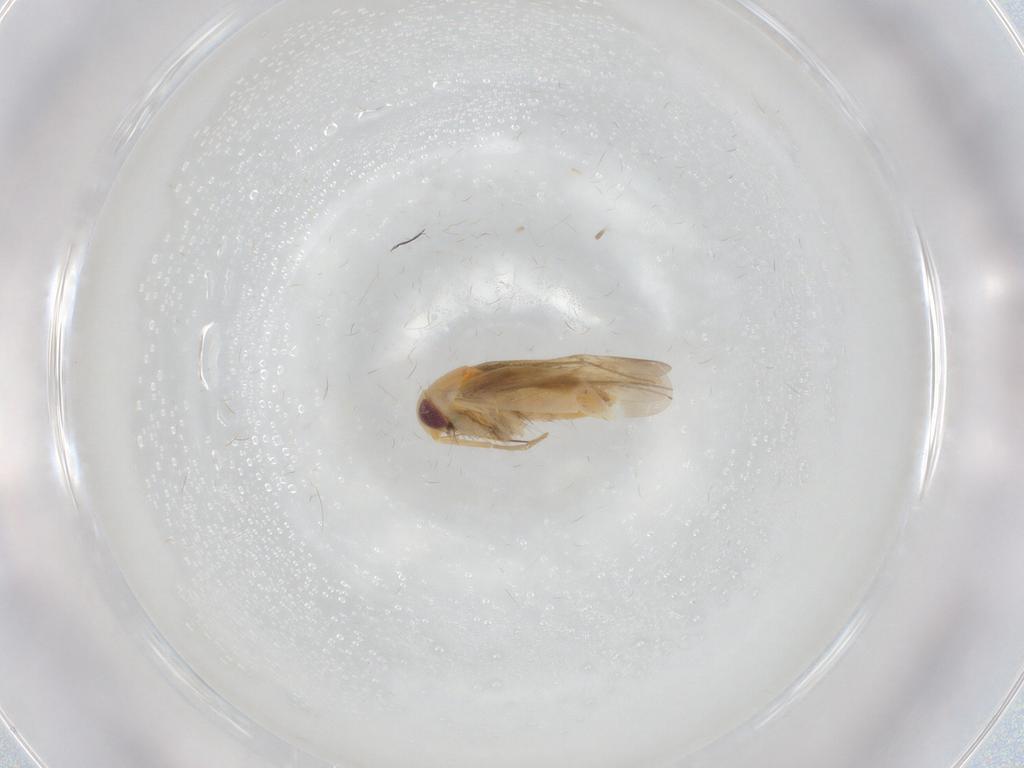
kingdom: Animalia
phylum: Arthropoda
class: Insecta
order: Hemiptera
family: Miridae
